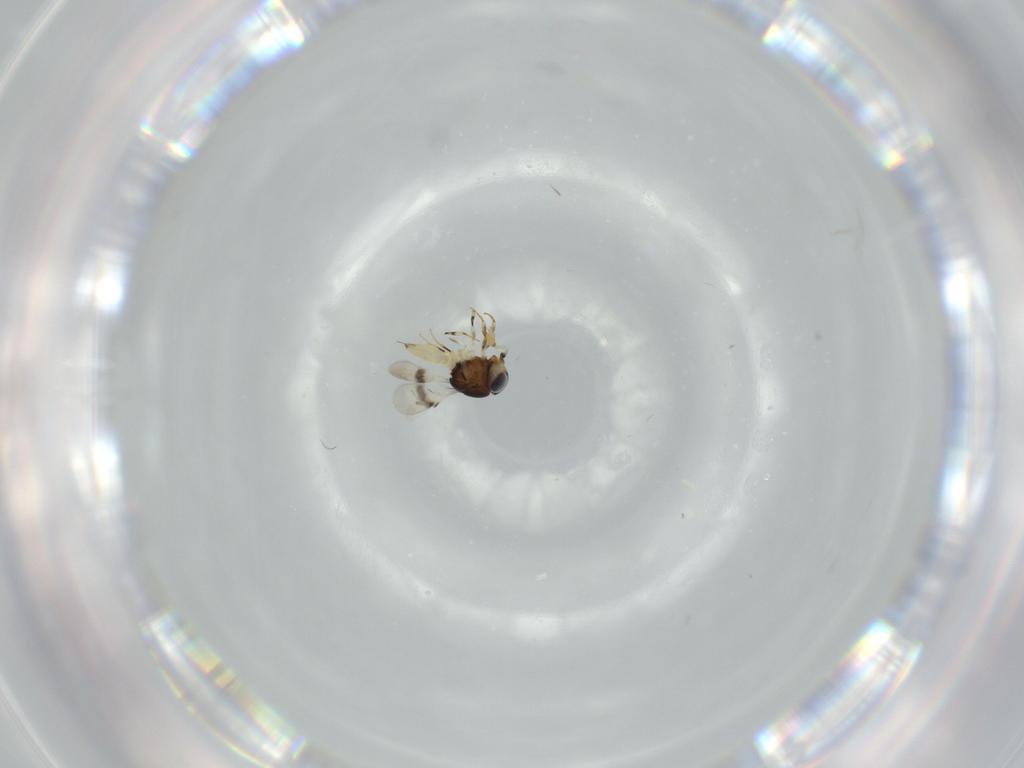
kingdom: Animalia
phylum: Arthropoda
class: Insecta
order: Hymenoptera
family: Scelionidae
